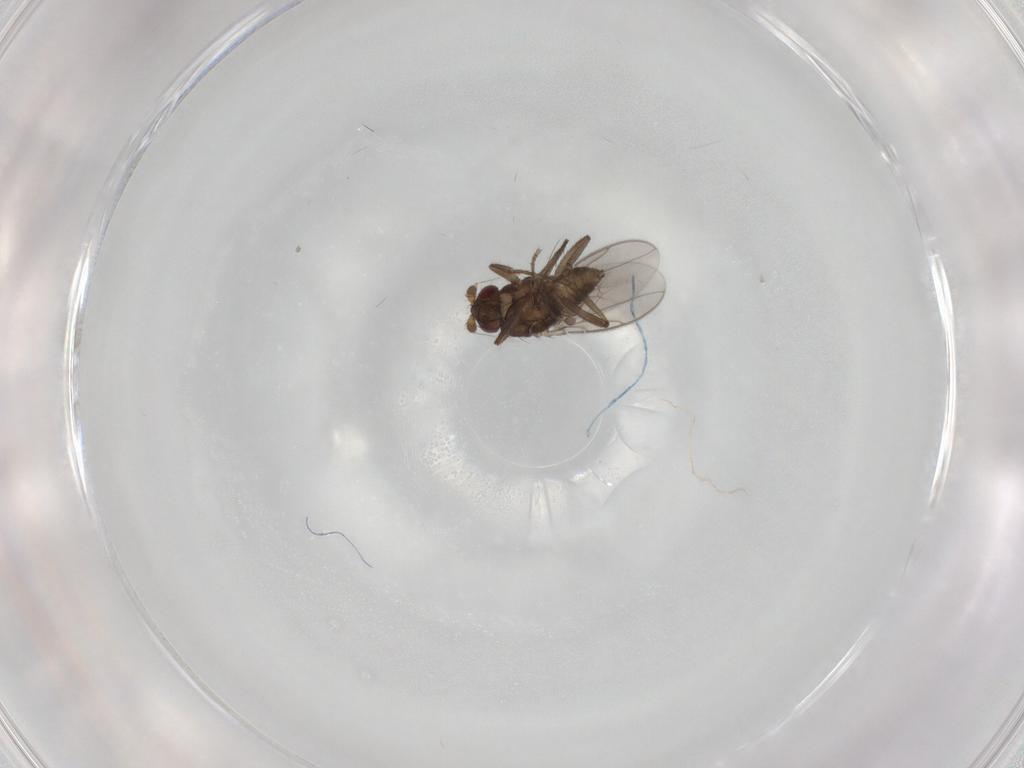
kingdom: Animalia
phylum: Arthropoda
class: Insecta
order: Diptera
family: Sphaeroceridae
